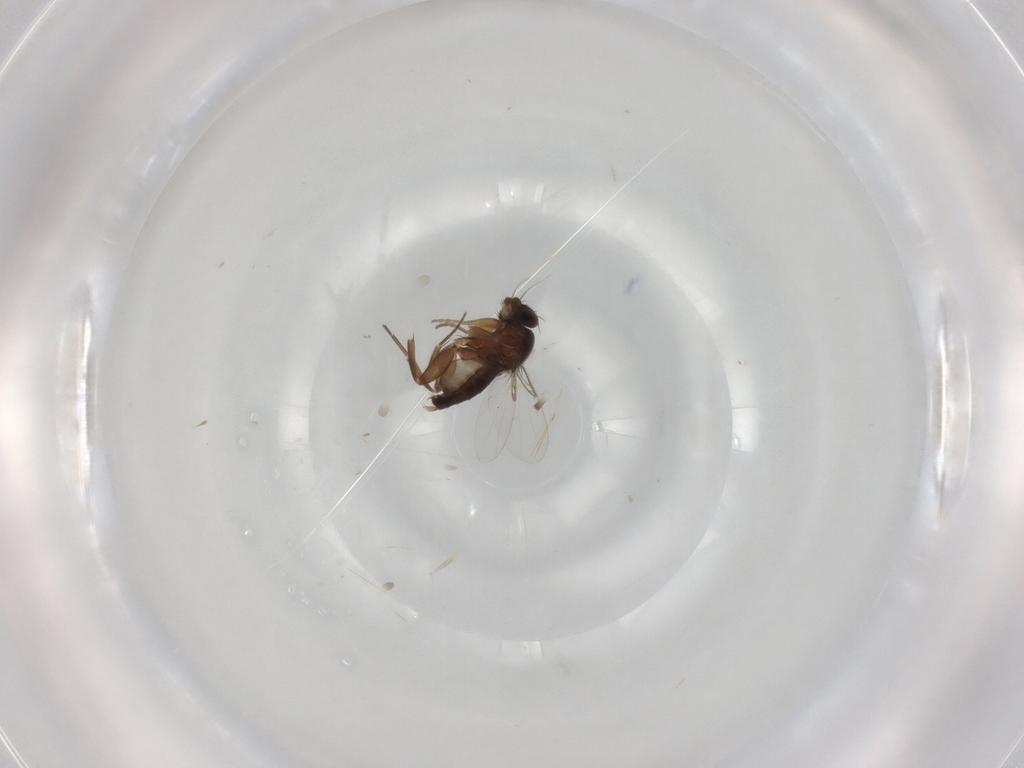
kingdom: Animalia
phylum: Arthropoda
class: Insecta
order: Diptera
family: Phoridae
